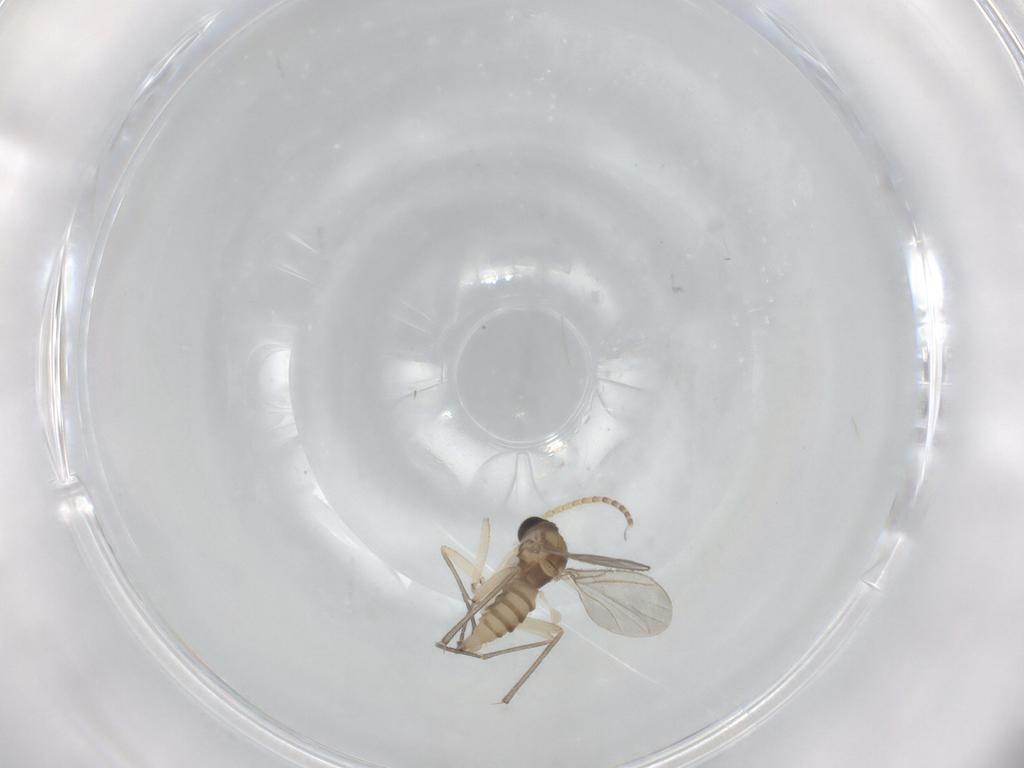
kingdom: Animalia
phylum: Arthropoda
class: Insecta
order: Diptera
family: Sciaridae
